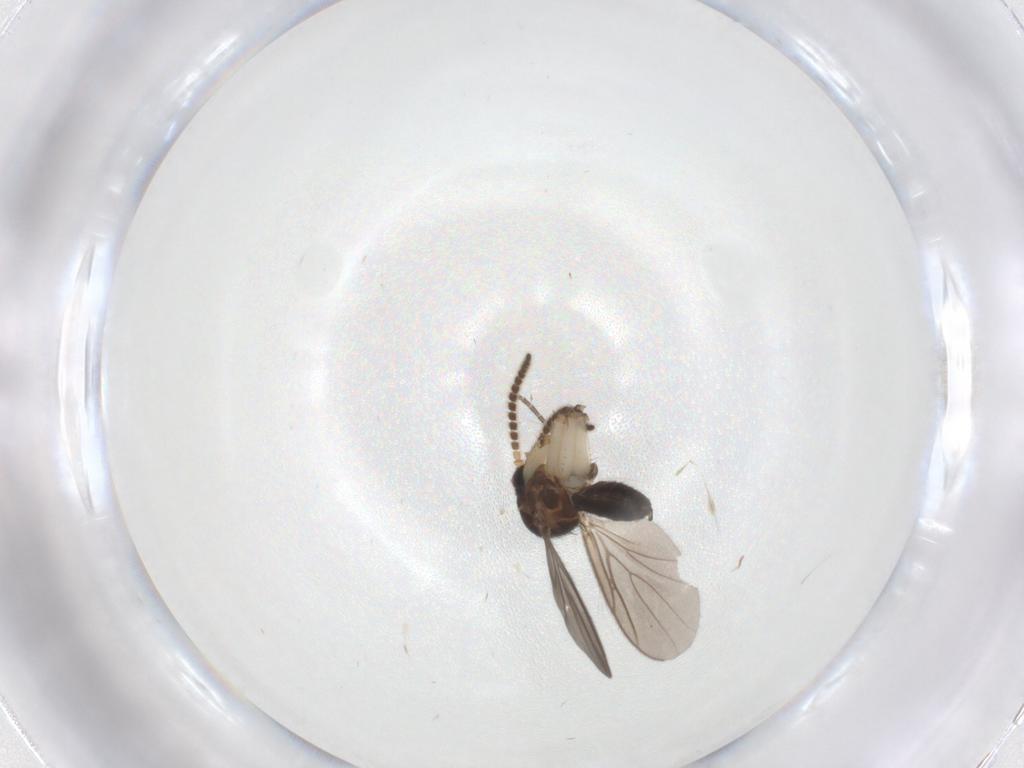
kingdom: Animalia
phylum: Arthropoda
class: Insecta
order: Diptera
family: Mycetophilidae
